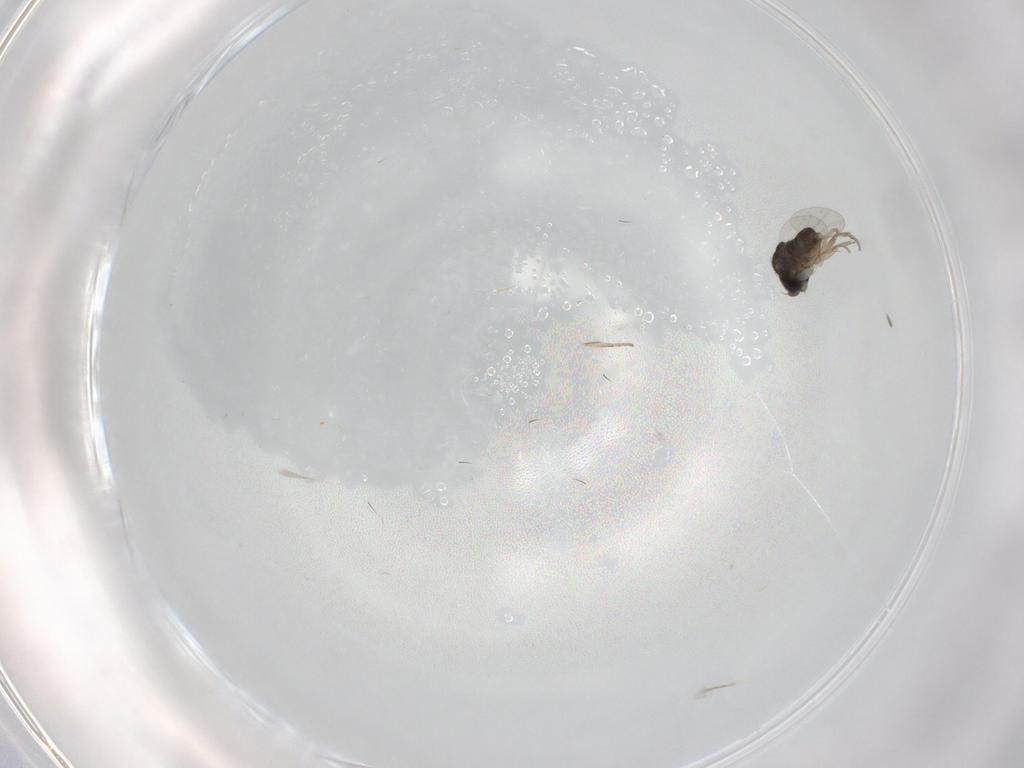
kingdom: Animalia
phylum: Arthropoda
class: Insecta
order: Diptera
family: Phoridae
